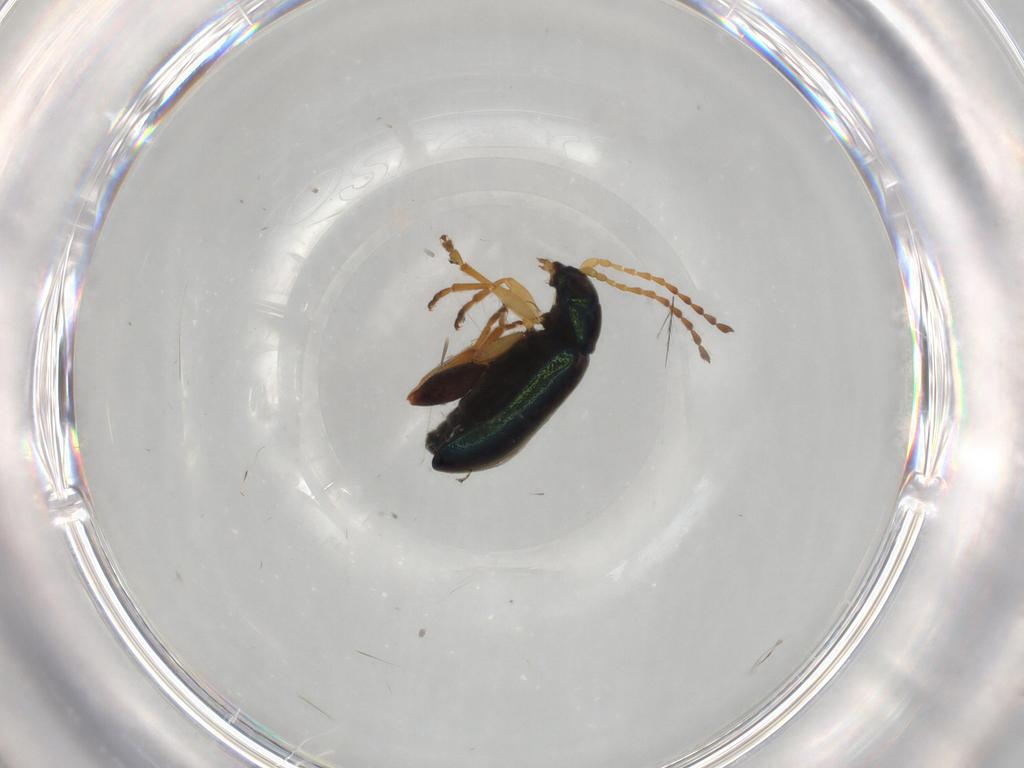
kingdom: Animalia
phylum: Arthropoda
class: Insecta
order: Coleoptera
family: Chrysomelidae
